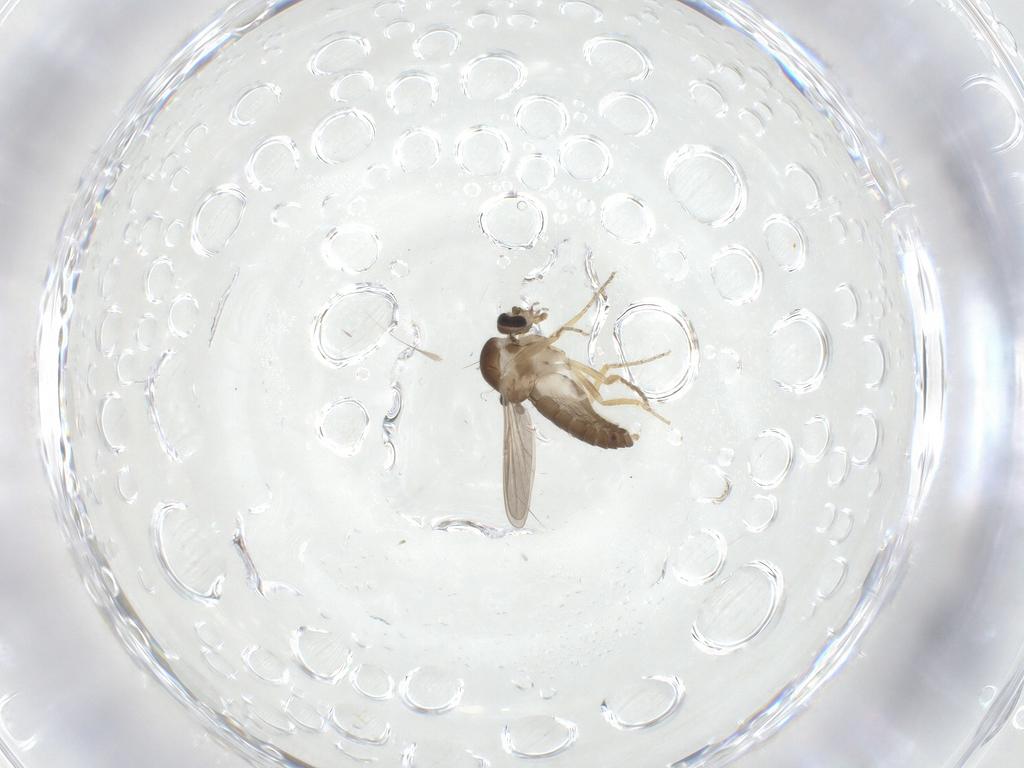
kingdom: Animalia
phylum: Arthropoda
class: Insecta
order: Diptera
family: Ceratopogonidae
